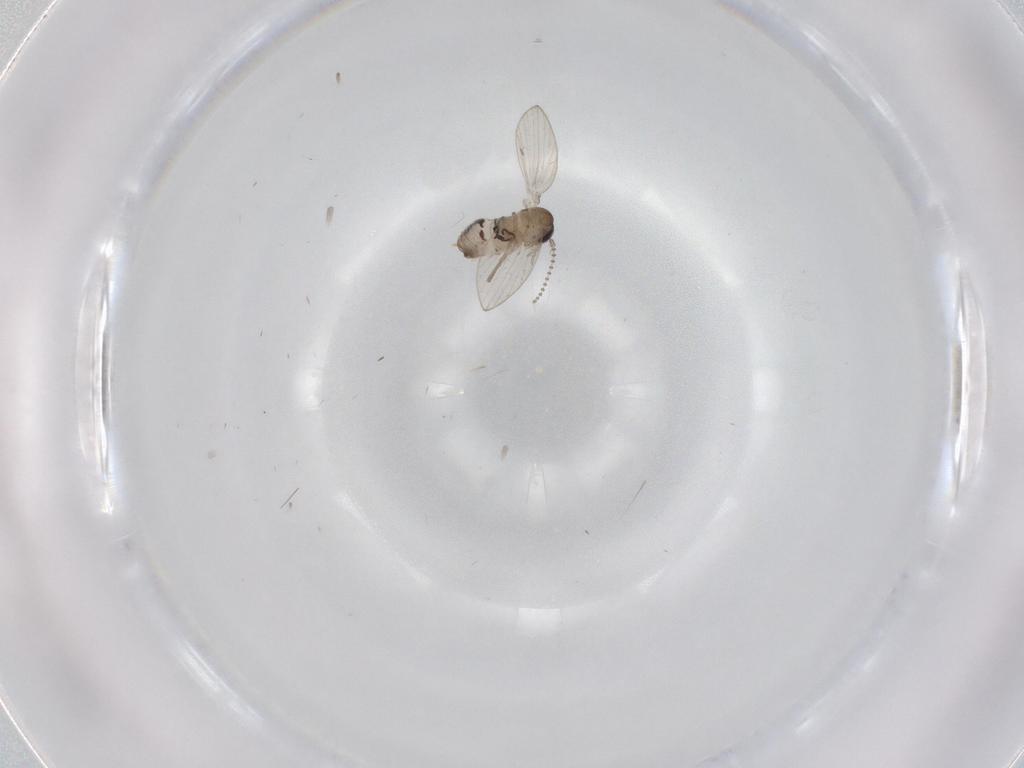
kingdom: Animalia
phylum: Arthropoda
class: Insecta
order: Diptera
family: Psychodidae
